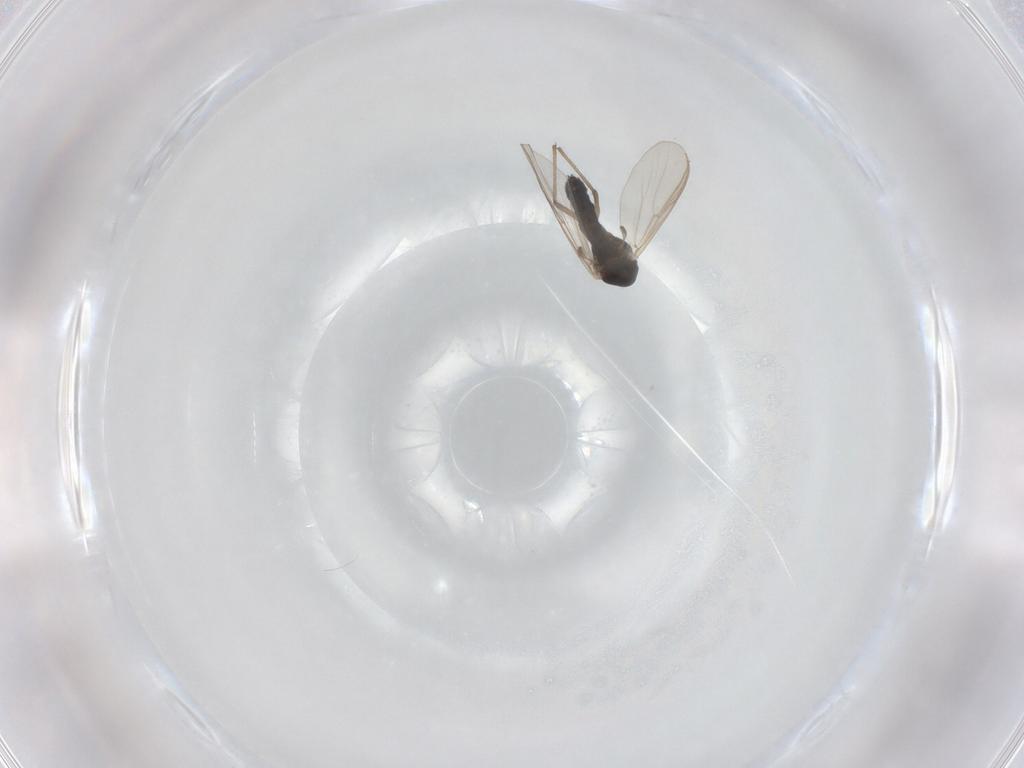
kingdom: Animalia
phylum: Arthropoda
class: Insecta
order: Diptera
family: Chironomidae
